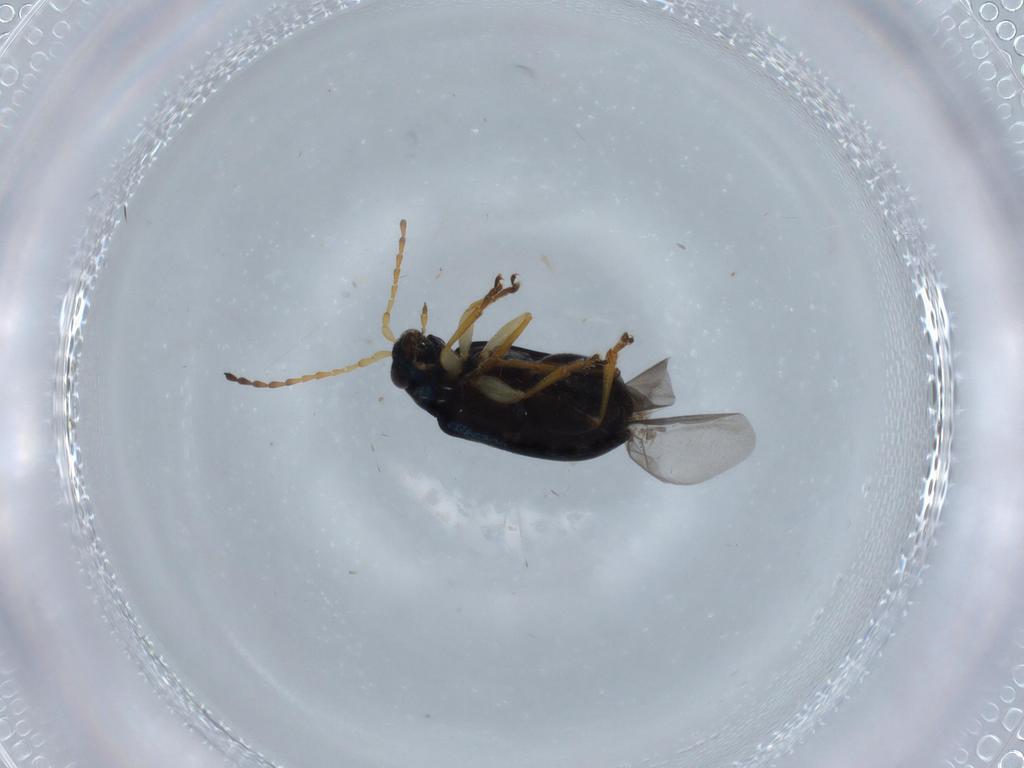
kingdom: Animalia
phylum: Arthropoda
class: Insecta
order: Coleoptera
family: Chrysomelidae
